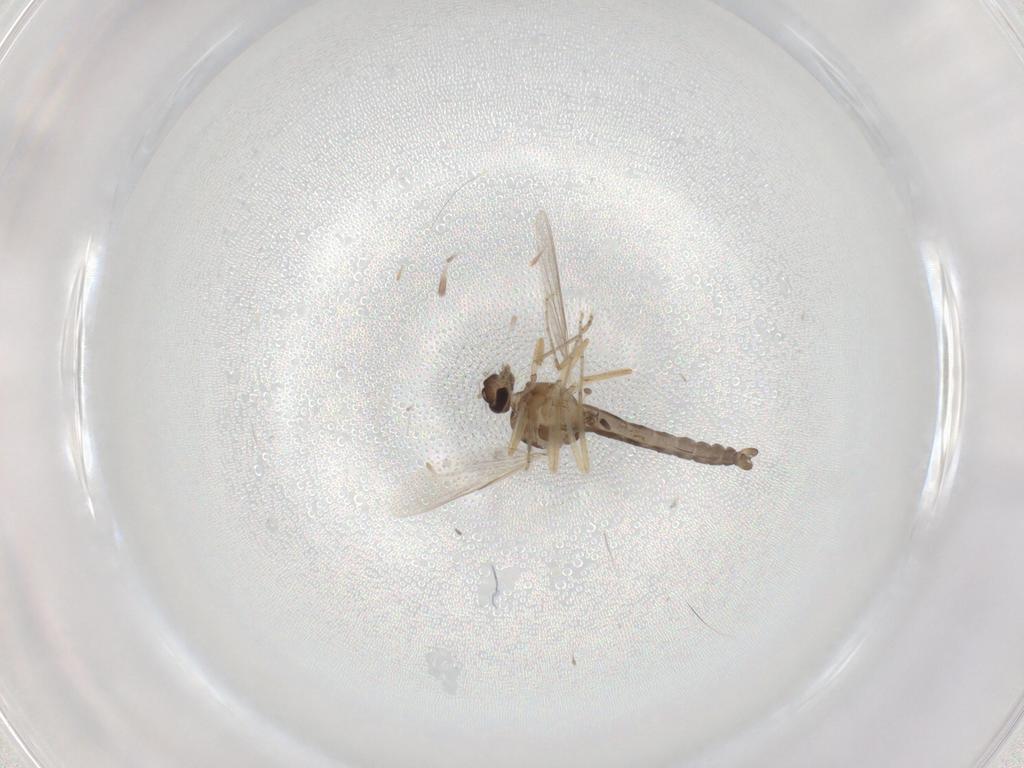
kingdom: Animalia
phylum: Arthropoda
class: Insecta
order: Diptera
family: Ceratopogonidae
